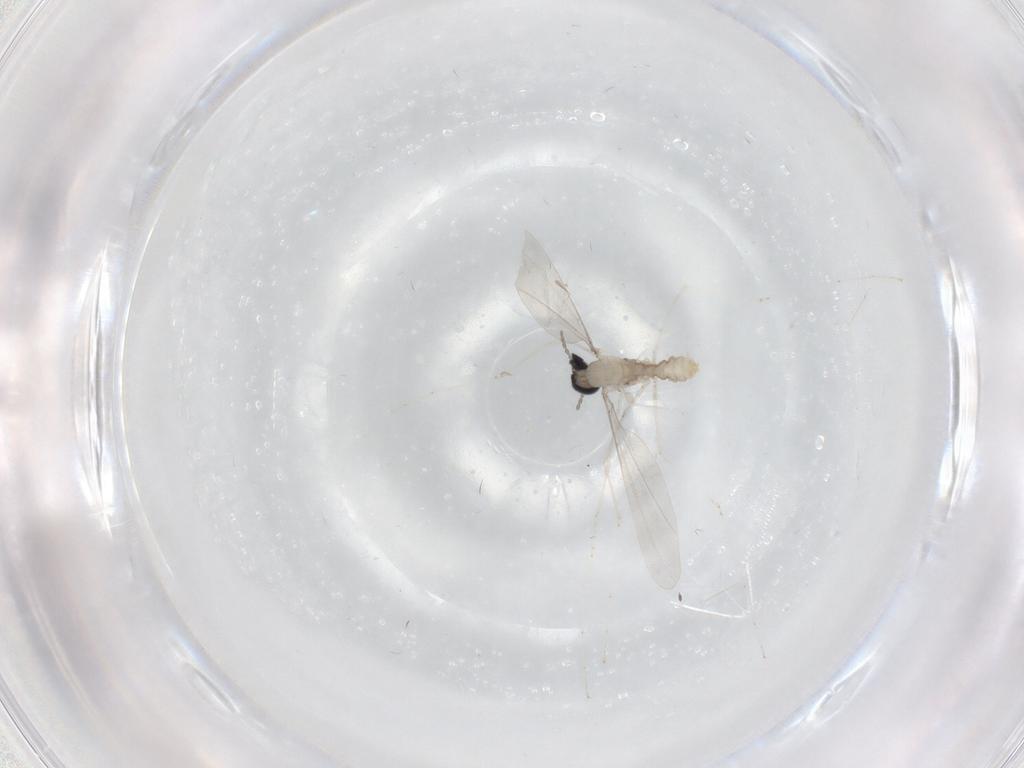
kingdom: Animalia
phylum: Arthropoda
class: Insecta
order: Diptera
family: Cecidomyiidae
